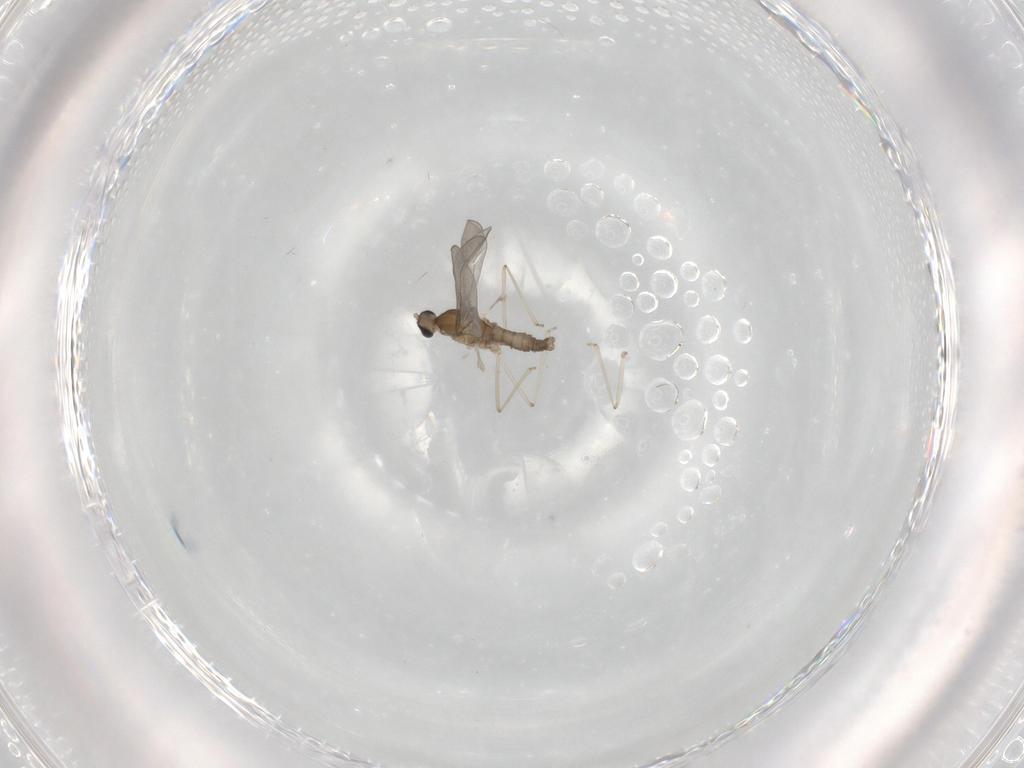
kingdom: Animalia
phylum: Arthropoda
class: Insecta
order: Diptera
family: Cecidomyiidae
